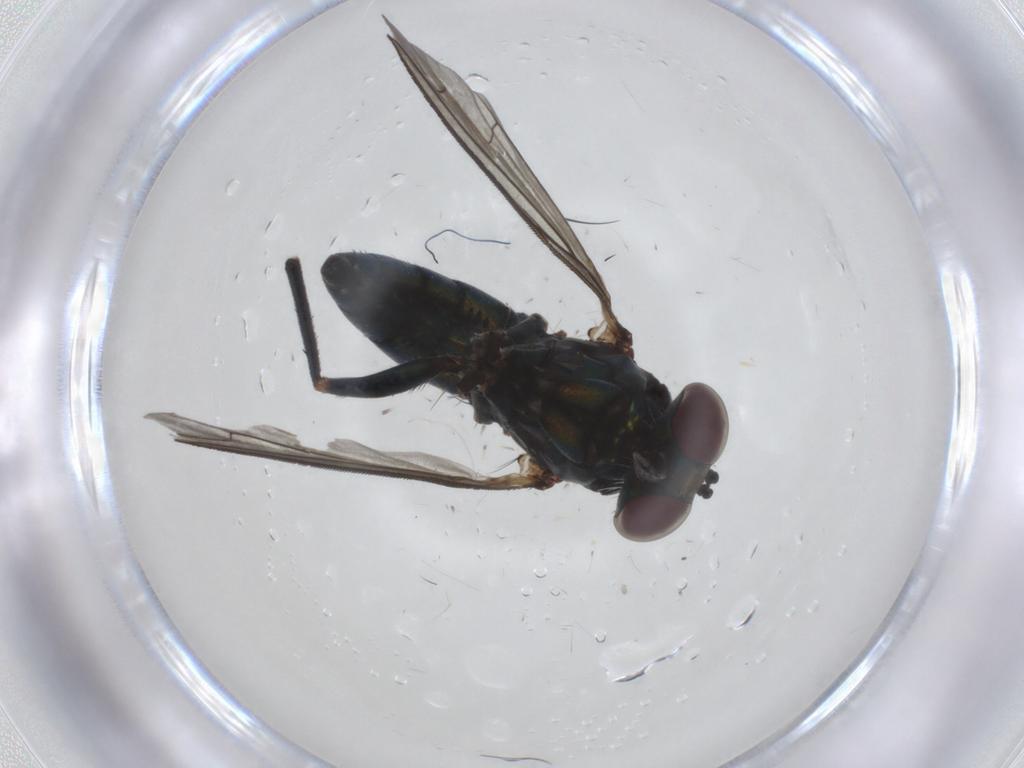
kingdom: Animalia
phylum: Arthropoda
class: Insecta
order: Diptera
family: Dolichopodidae
